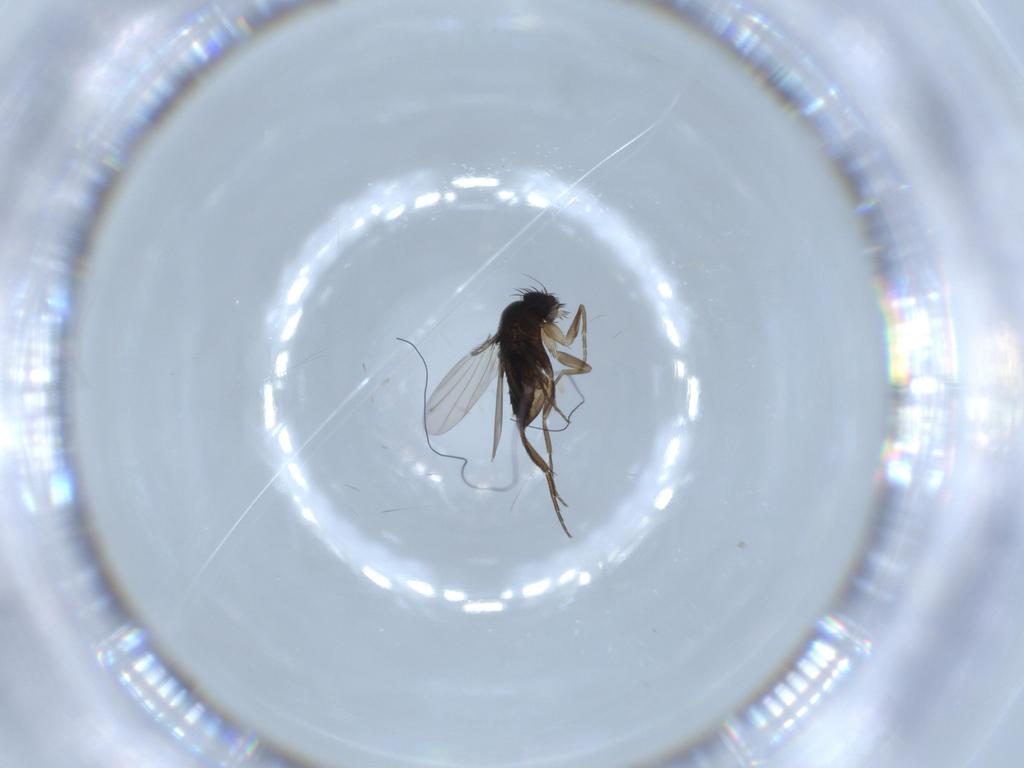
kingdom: Animalia
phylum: Arthropoda
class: Insecta
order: Diptera
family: Phoridae
